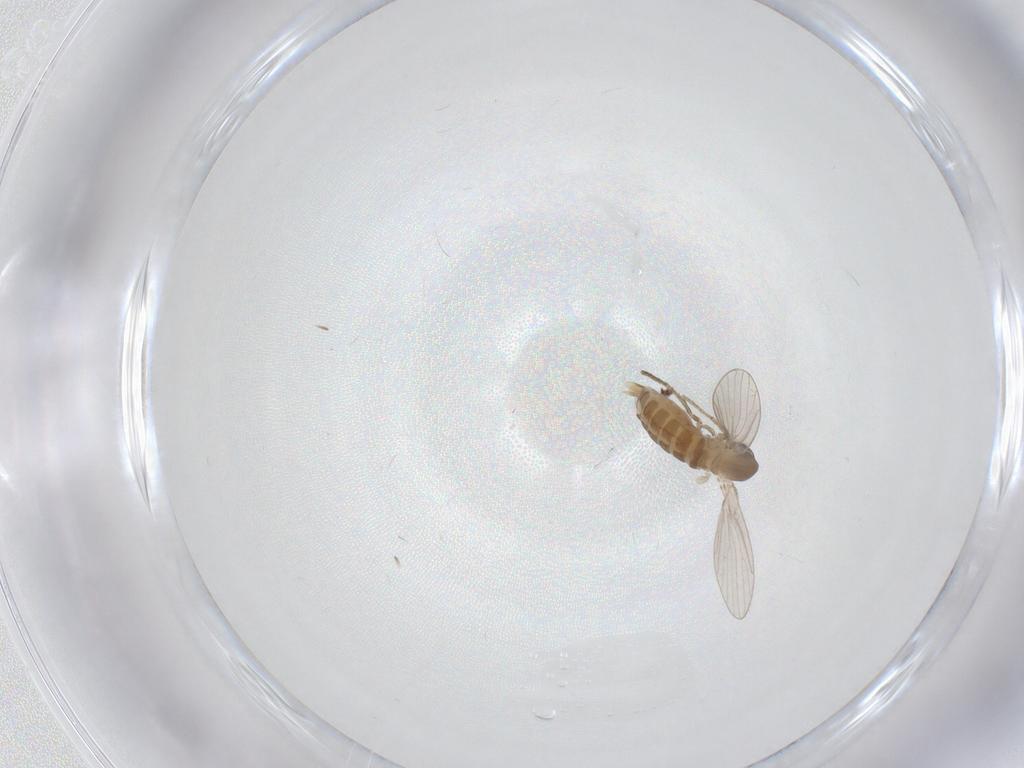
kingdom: Animalia
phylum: Arthropoda
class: Insecta
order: Diptera
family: Psychodidae
